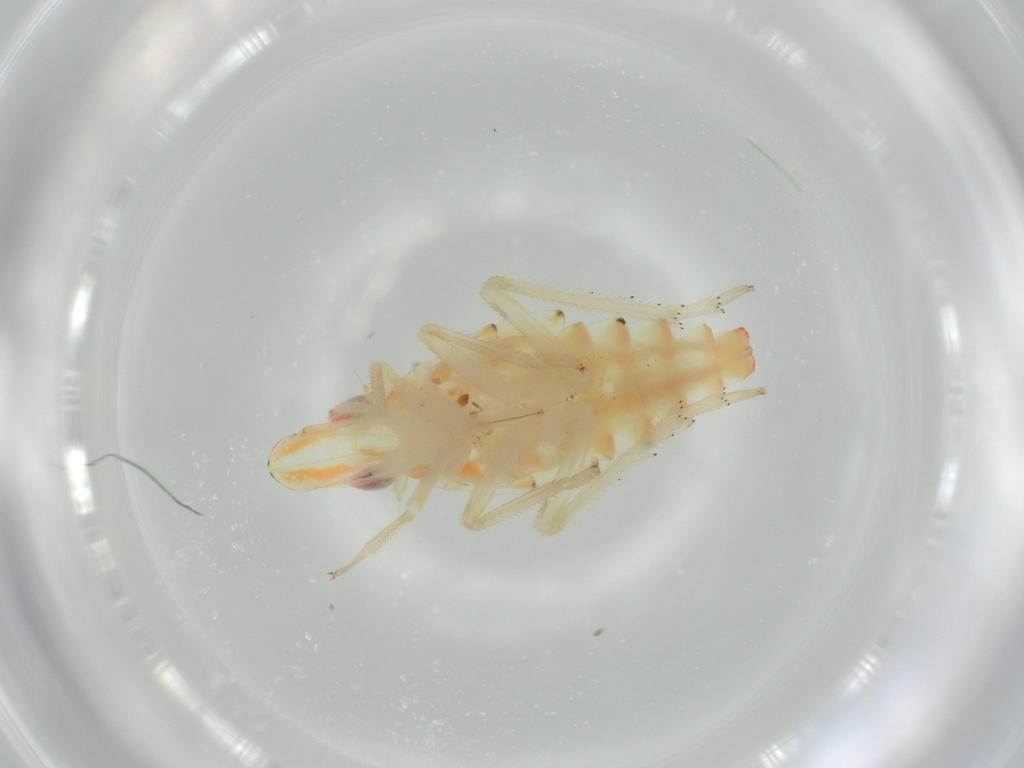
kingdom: Animalia
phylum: Arthropoda
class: Insecta
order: Hemiptera
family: Tropiduchidae
